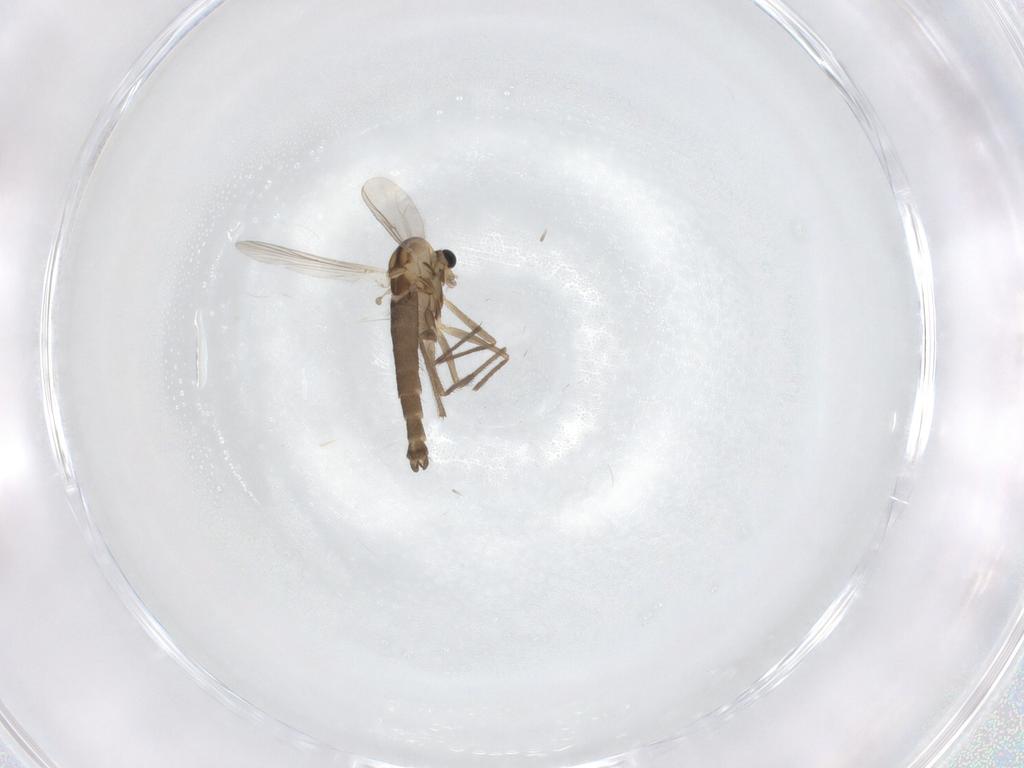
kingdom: Animalia
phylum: Arthropoda
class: Insecta
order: Diptera
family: Chironomidae
